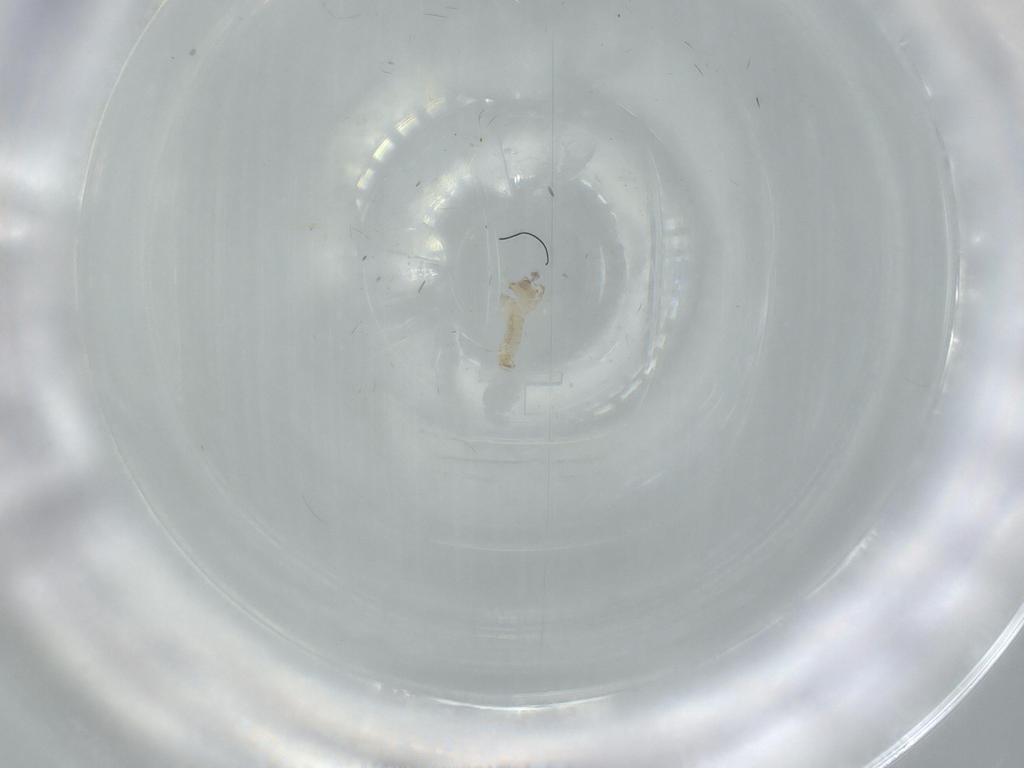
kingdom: Animalia
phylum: Arthropoda
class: Insecta
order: Diptera
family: Cecidomyiidae
